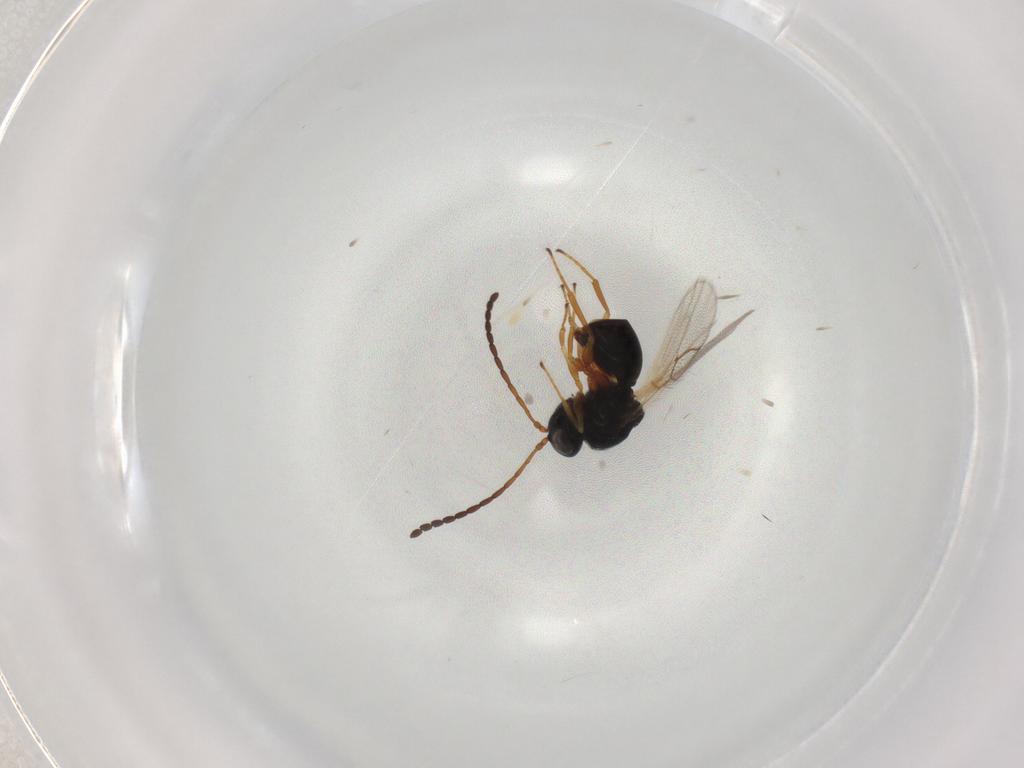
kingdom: Animalia
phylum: Arthropoda
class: Insecta
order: Hymenoptera
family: Figitidae
